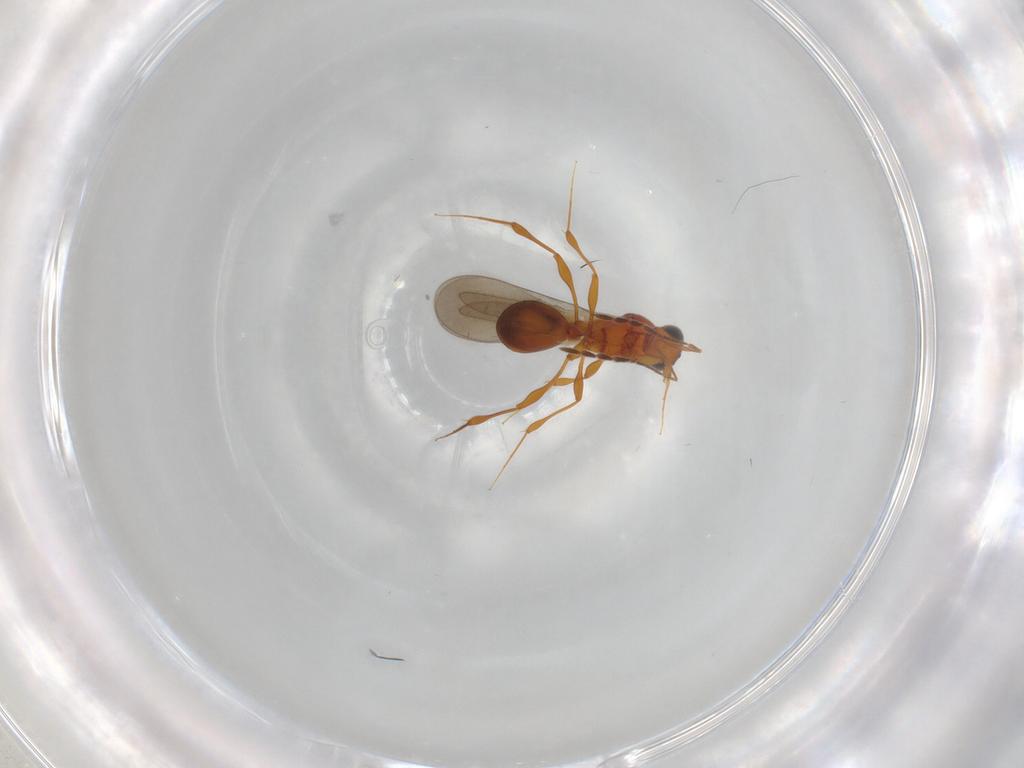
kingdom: Animalia
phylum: Arthropoda
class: Insecta
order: Hymenoptera
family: Platygastridae
